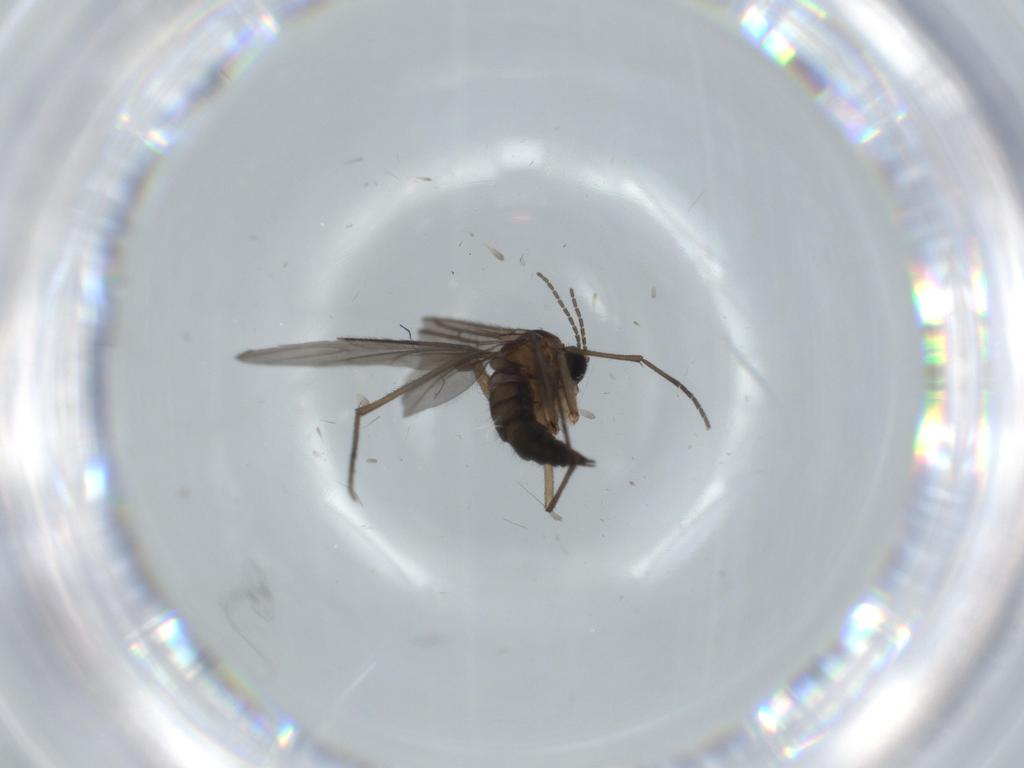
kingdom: Animalia
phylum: Arthropoda
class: Insecta
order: Diptera
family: Sciaridae
